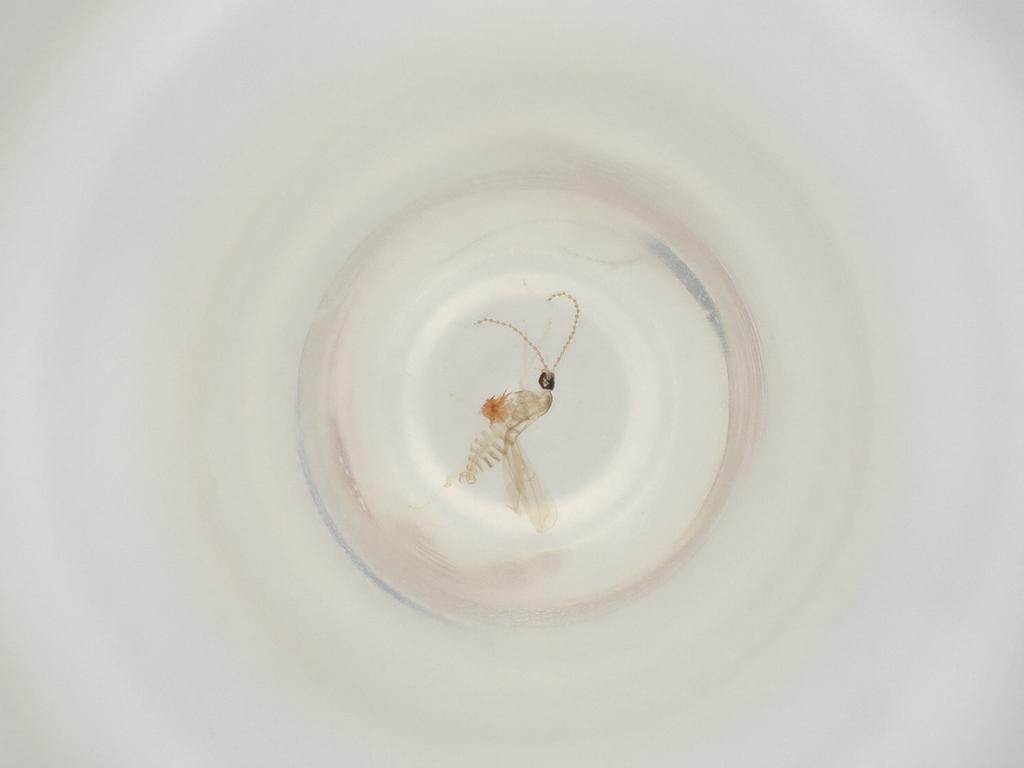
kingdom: Animalia
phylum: Arthropoda
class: Insecta
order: Diptera
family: Cecidomyiidae
